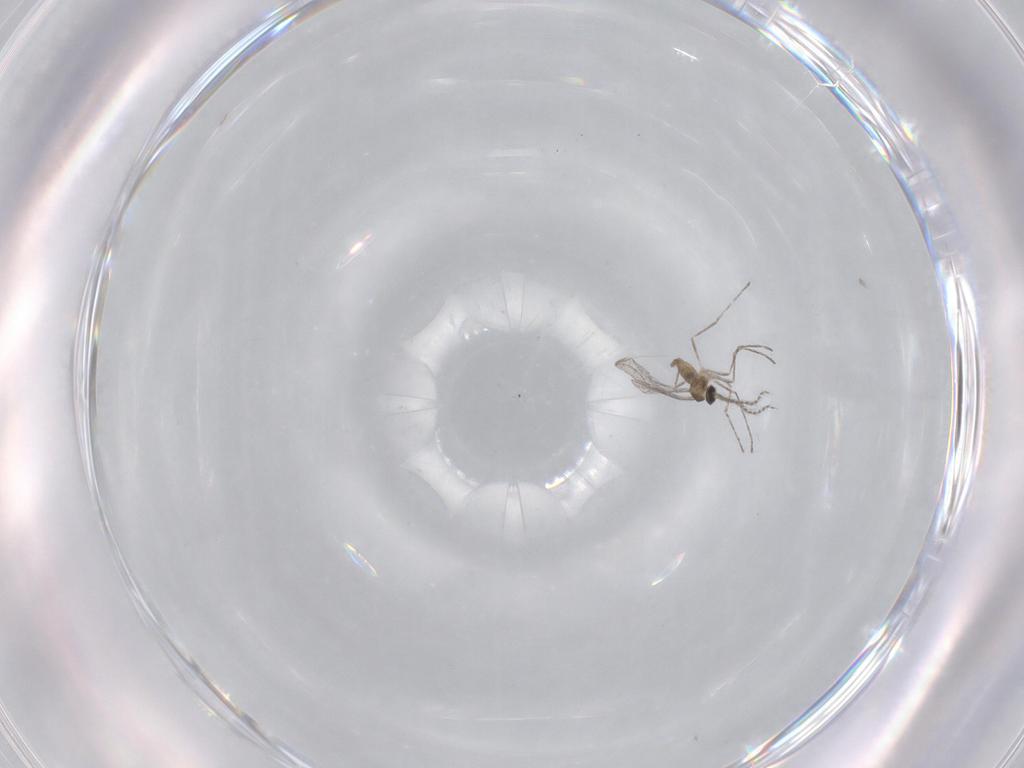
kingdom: Animalia
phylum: Arthropoda
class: Insecta
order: Diptera
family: Chironomidae
